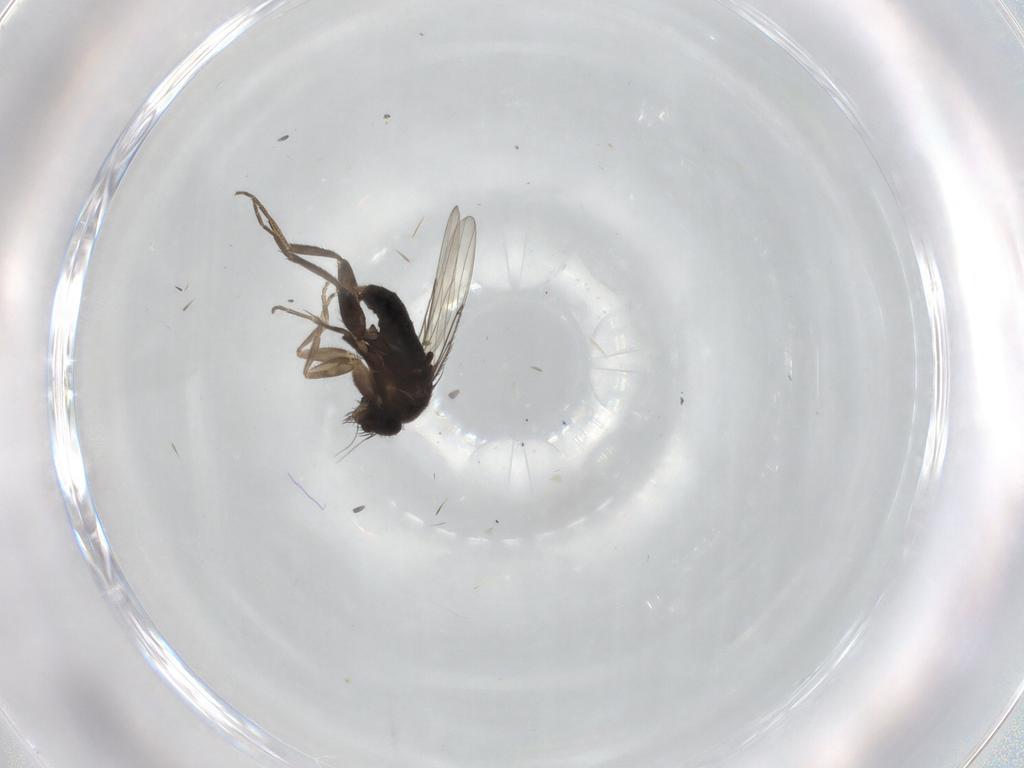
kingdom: Animalia
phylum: Arthropoda
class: Insecta
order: Diptera
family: Phoridae
